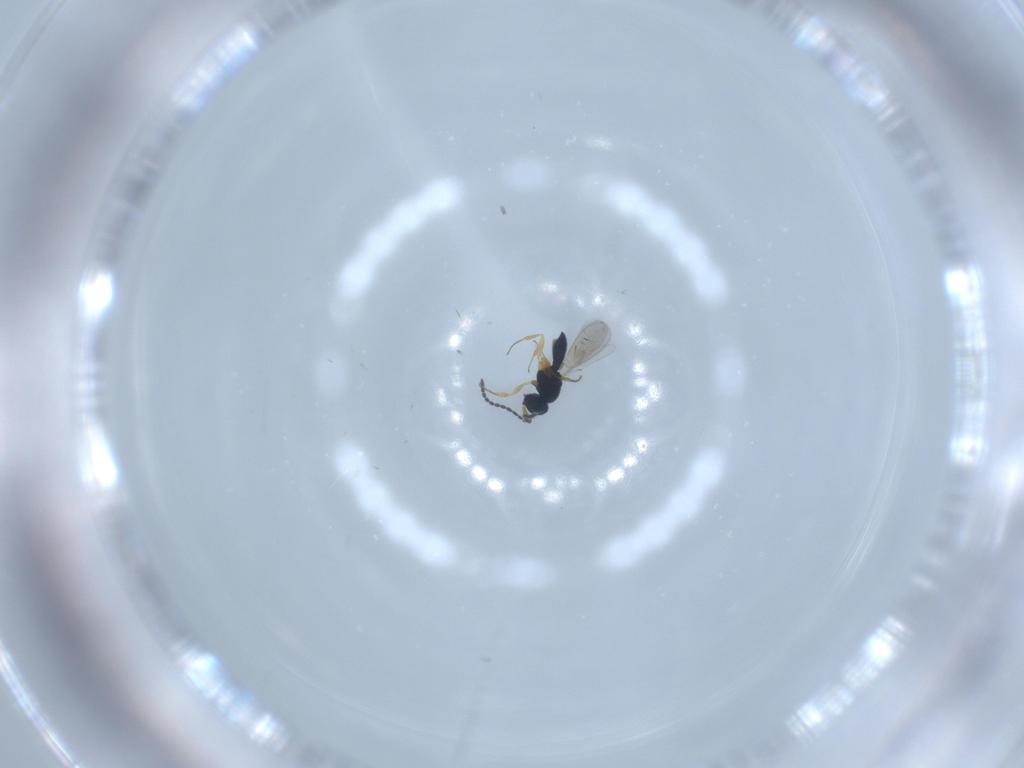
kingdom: Animalia
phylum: Arthropoda
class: Insecta
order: Hymenoptera
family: Scelionidae
